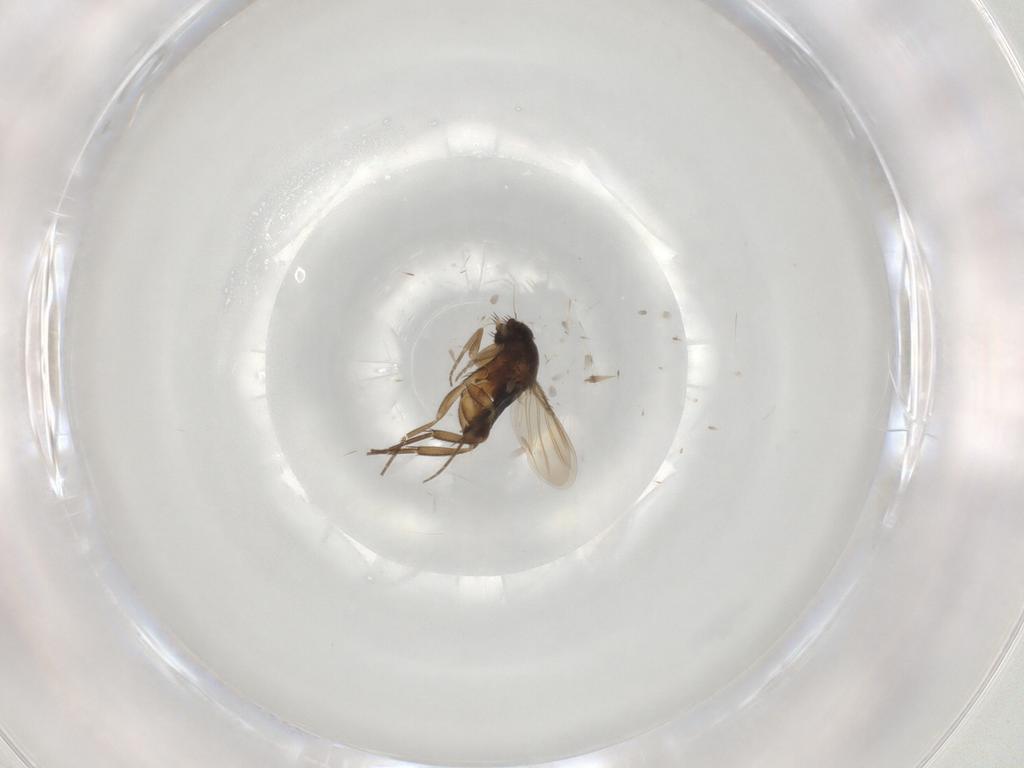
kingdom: Animalia
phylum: Arthropoda
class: Insecta
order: Diptera
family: Phoridae
